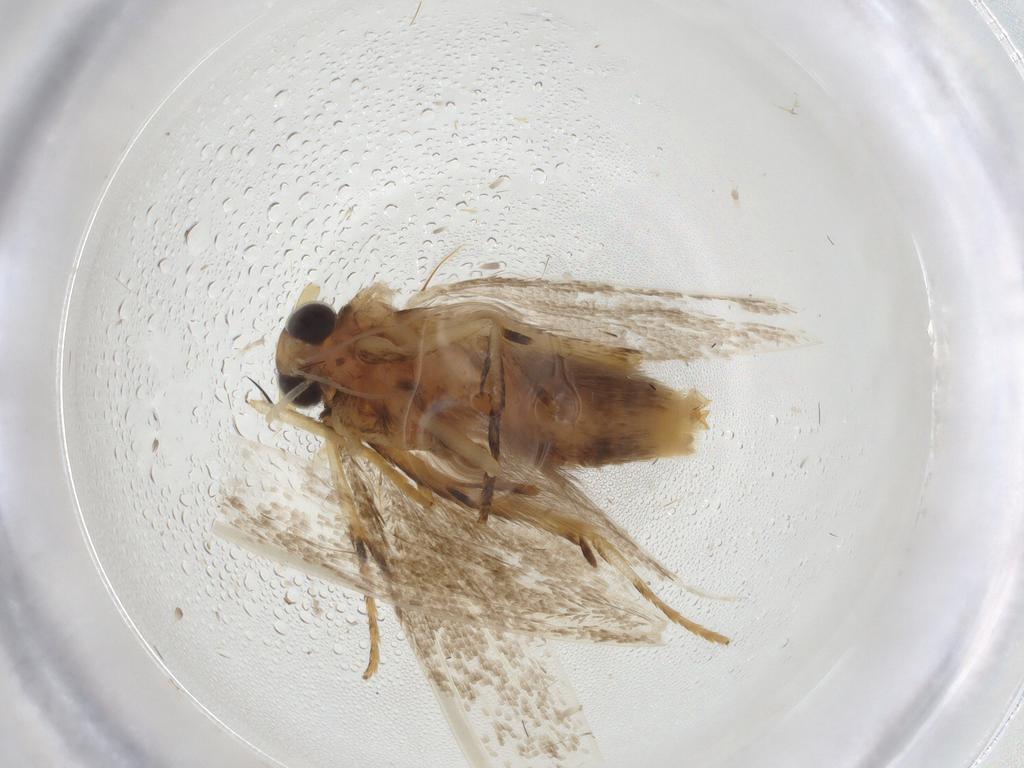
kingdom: Animalia
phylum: Arthropoda
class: Insecta
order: Lepidoptera
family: Blastobasidae
